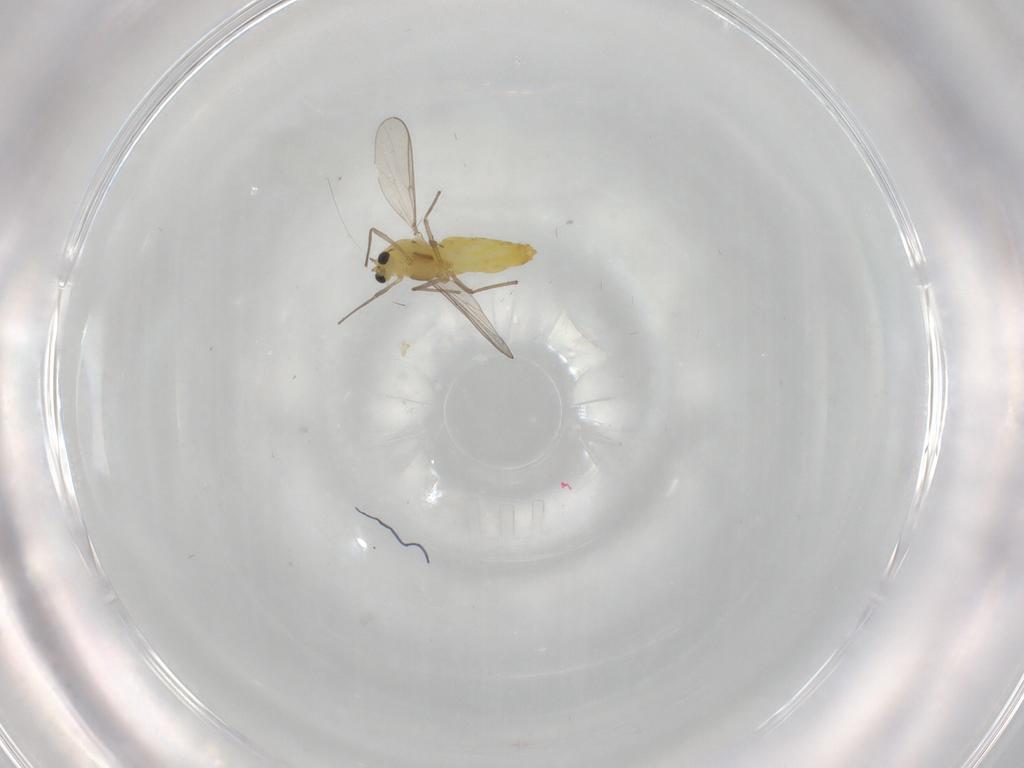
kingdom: Animalia
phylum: Arthropoda
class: Insecta
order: Diptera
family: Chironomidae
